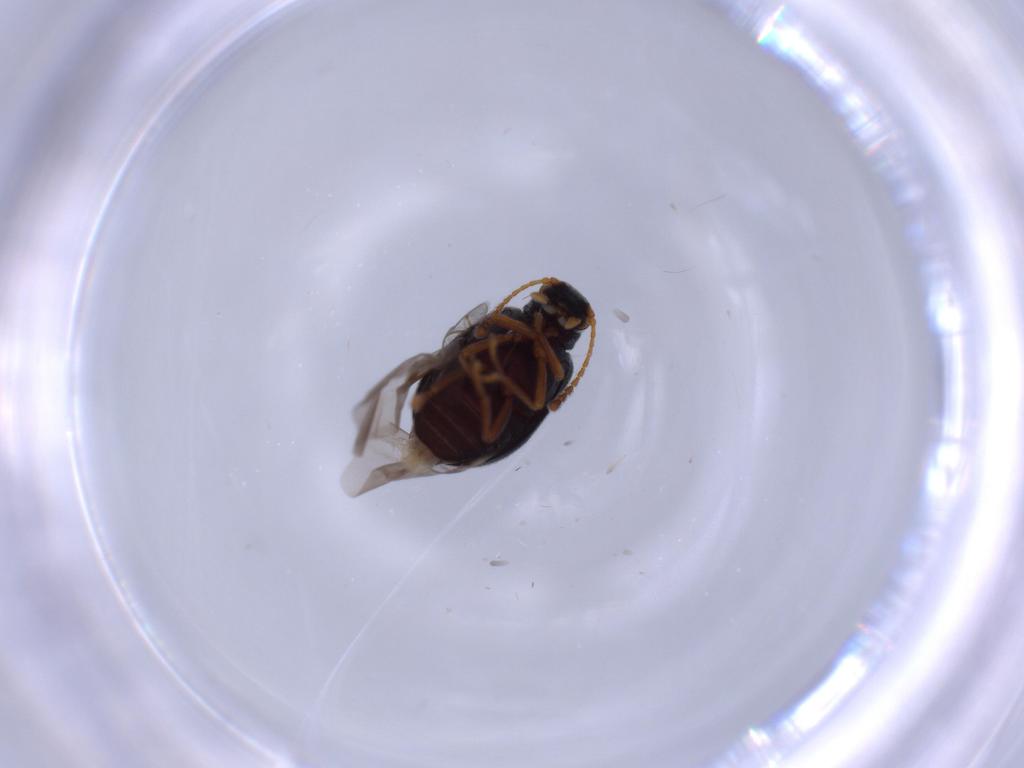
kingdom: Animalia
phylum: Arthropoda
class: Insecta
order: Coleoptera
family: Aderidae
